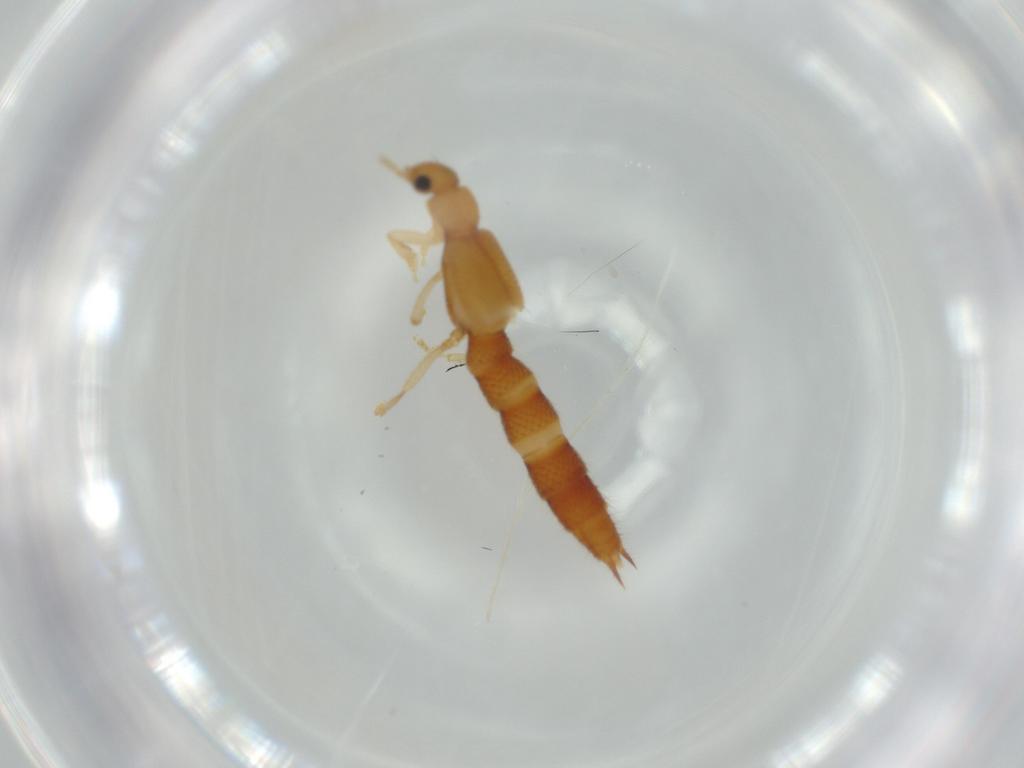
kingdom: Animalia
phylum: Arthropoda
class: Insecta
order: Coleoptera
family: Staphylinidae
